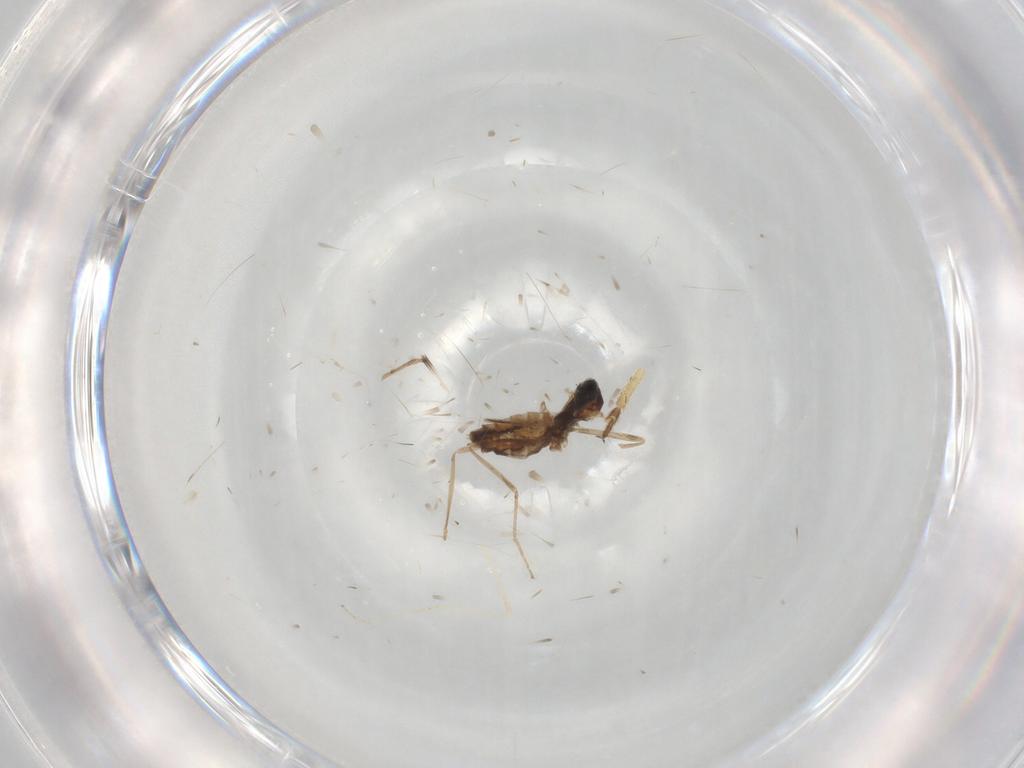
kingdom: Animalia
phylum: Arthropoda
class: Insecta
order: Diptera
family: Cecidomyiidae
